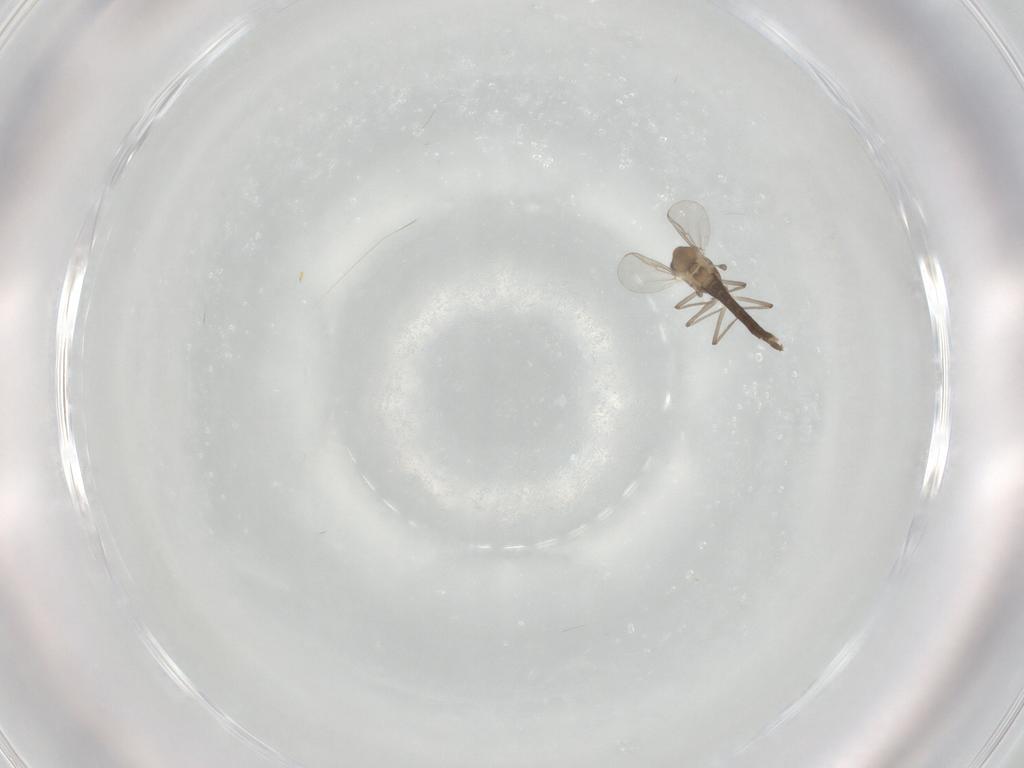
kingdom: Animalia
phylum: Arthropoda
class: Insecta
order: Diptera
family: Chironomidae
